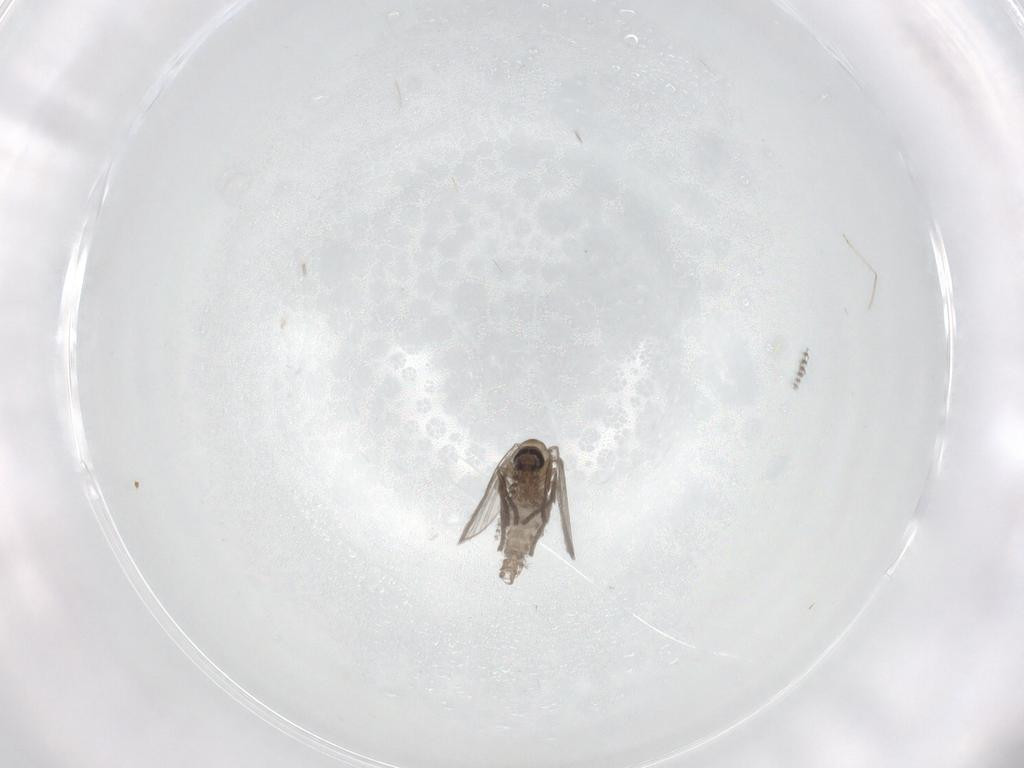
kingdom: Animalia
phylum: Arthropoda
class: Insecta
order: Diptera
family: Psychodidae
